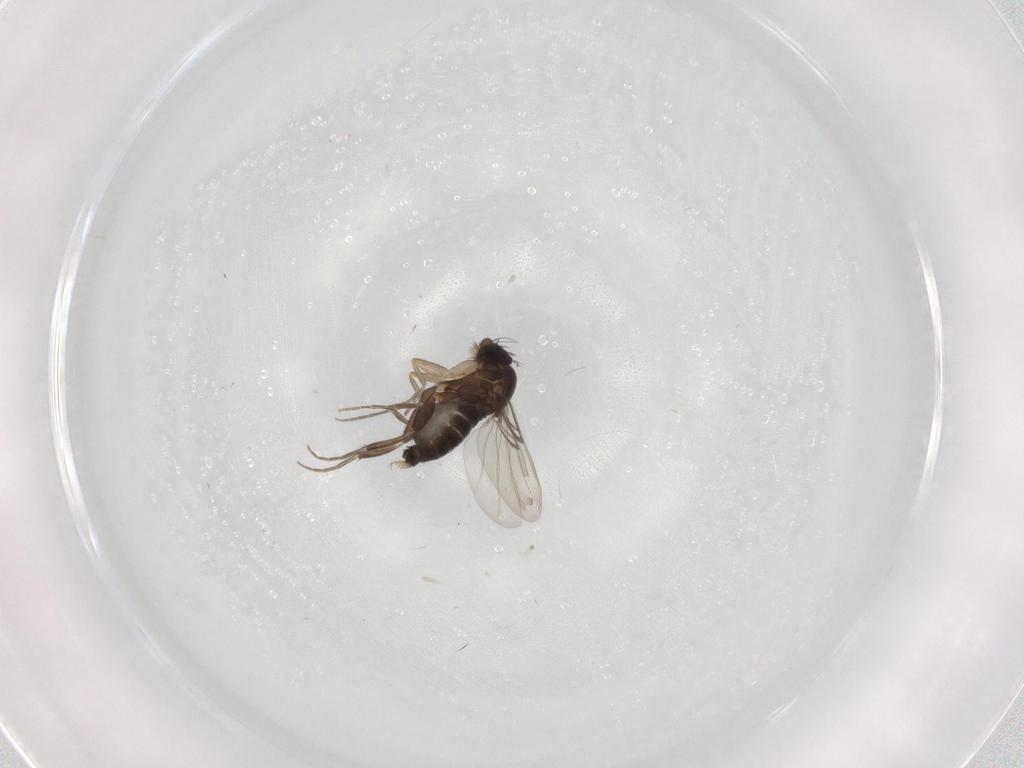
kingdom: Animalia
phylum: Arthropoda
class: Insecta
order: Diptera
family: Phoridae
